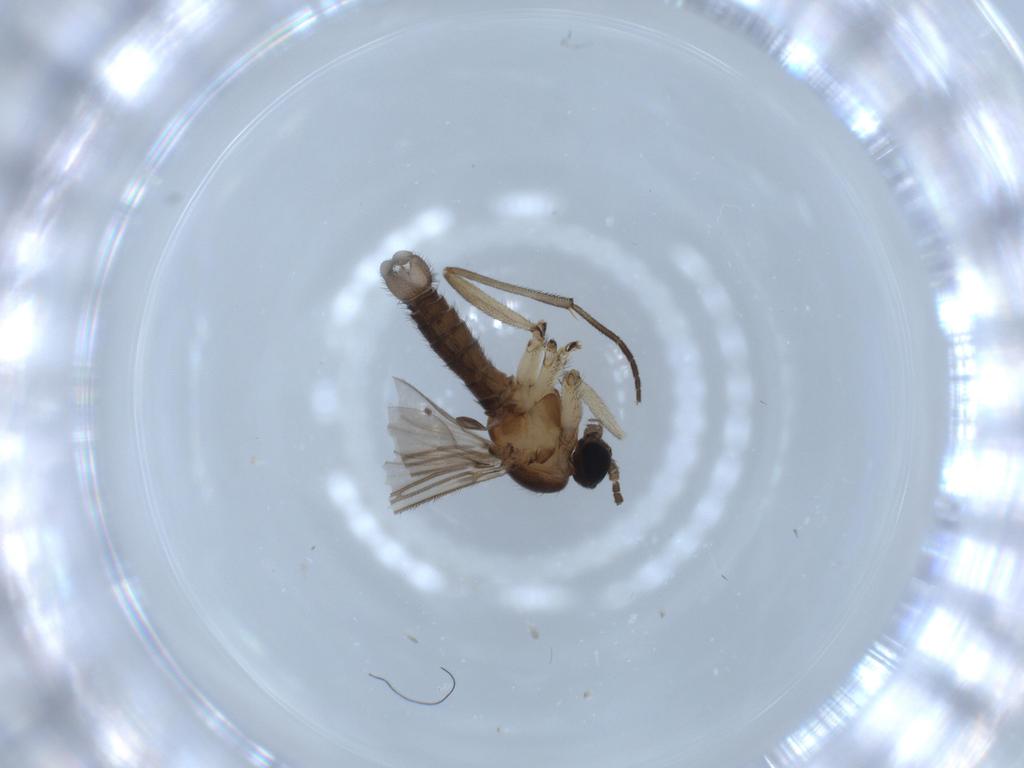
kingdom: Animalia
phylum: Arthropoda
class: Insecta
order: Diptera
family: Sciaridae
